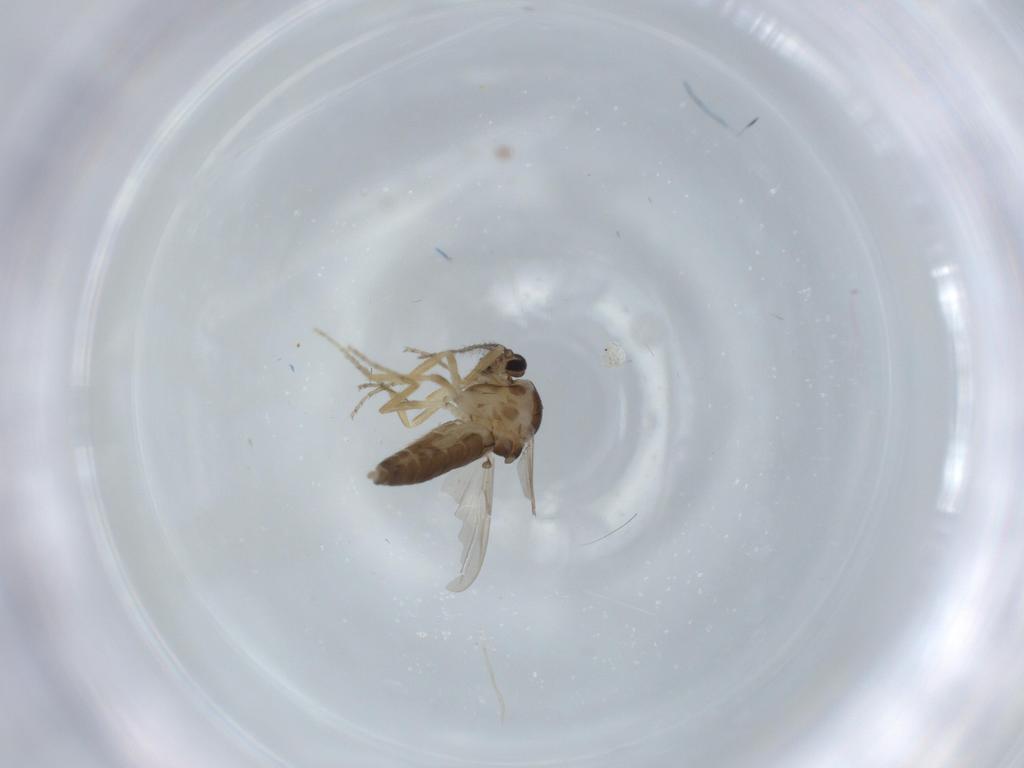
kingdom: Animalia
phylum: Arthropoda
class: Insecta
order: Diptera
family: Ceratopogonidae
